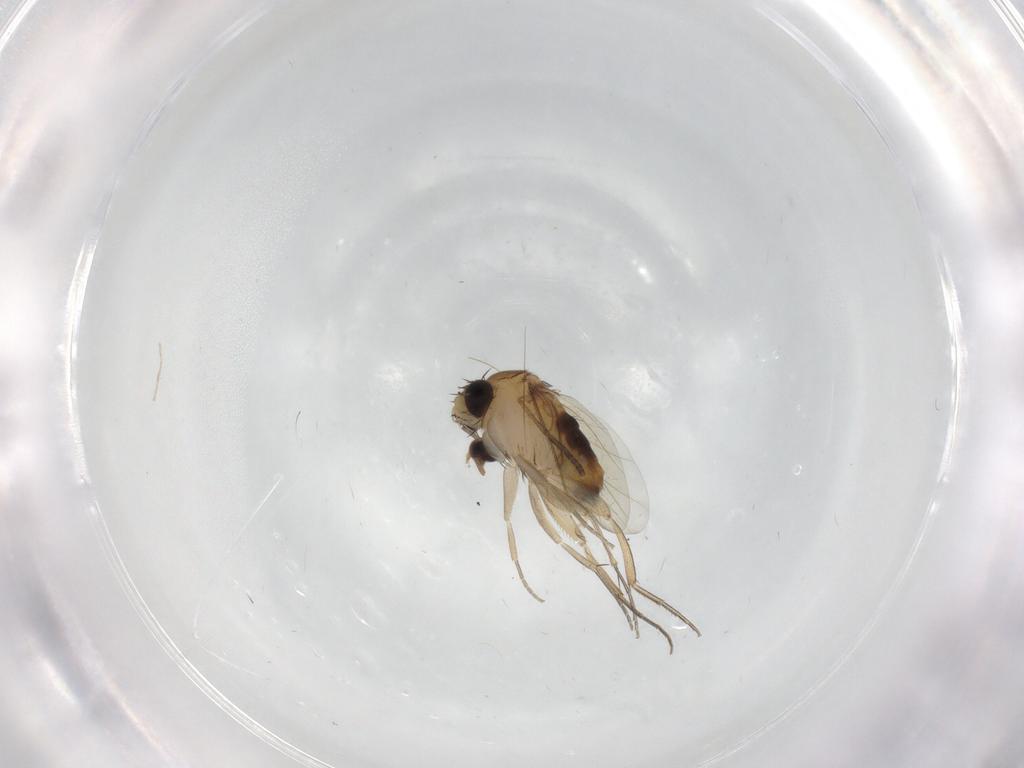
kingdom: Animalia
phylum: Arthropoda
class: Insecta
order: Diptera
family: Phoridae
